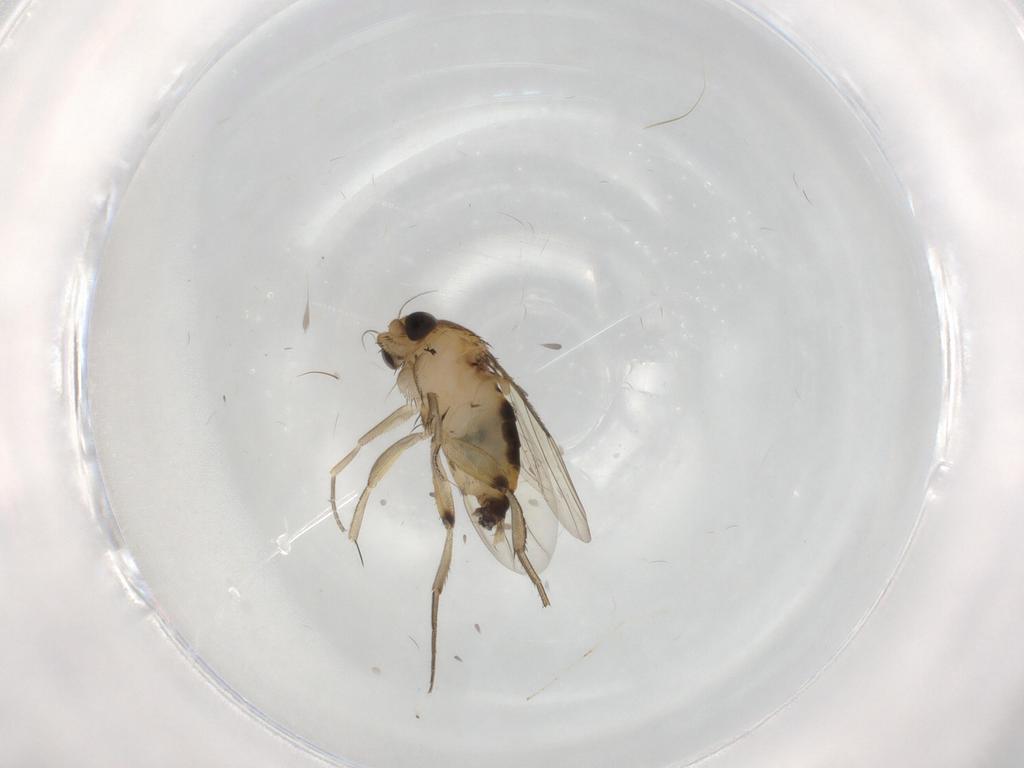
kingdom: Animalia
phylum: Arthropoda
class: Insecta
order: Diptera
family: Phoridae
